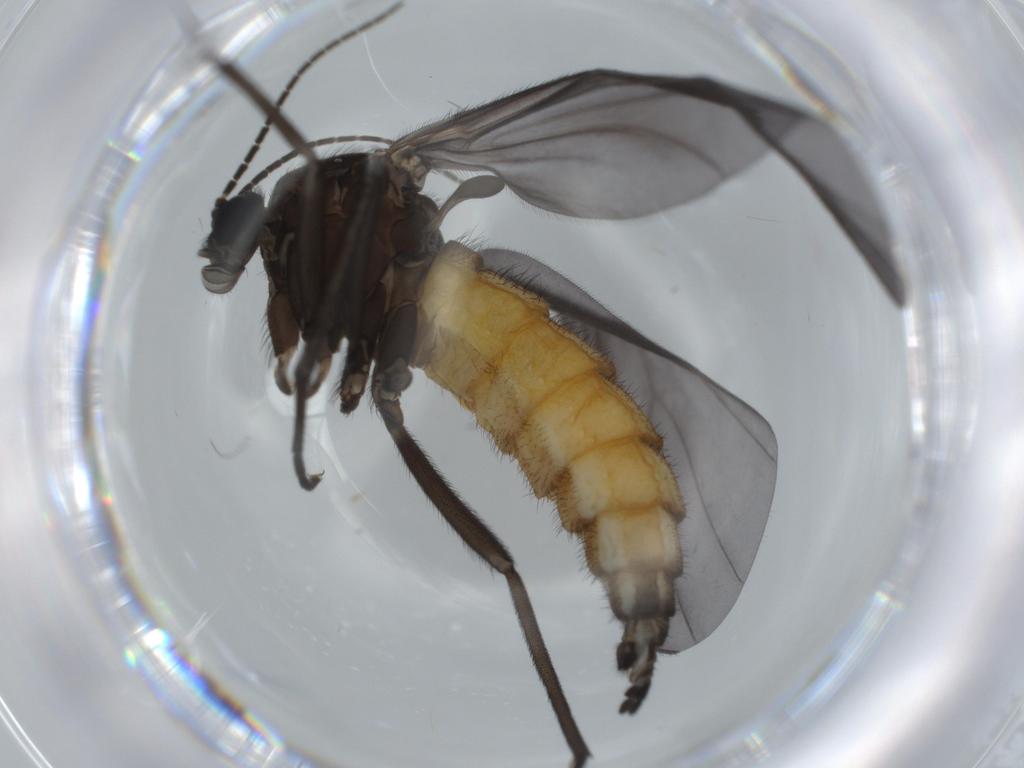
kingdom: Animalia
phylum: Arthropoda
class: Insecta
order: Diptera
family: Sciaridae
